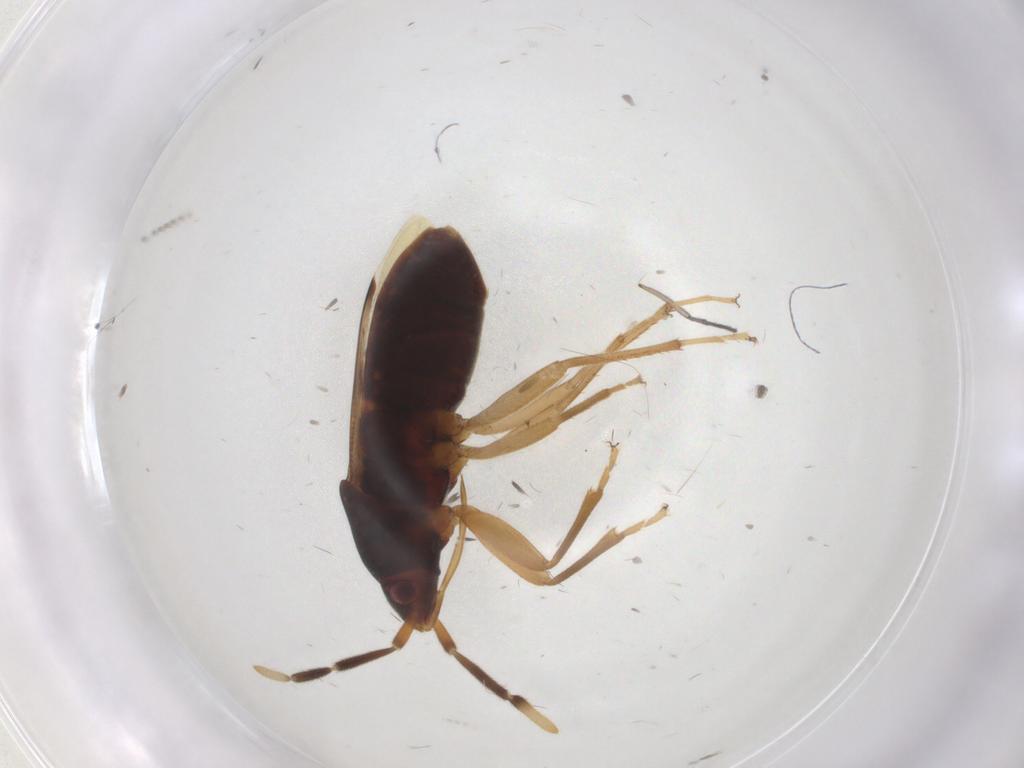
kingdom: Animalia
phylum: Arthropoda
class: Insecta
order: Hemiptera
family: Rhyparochromidae
